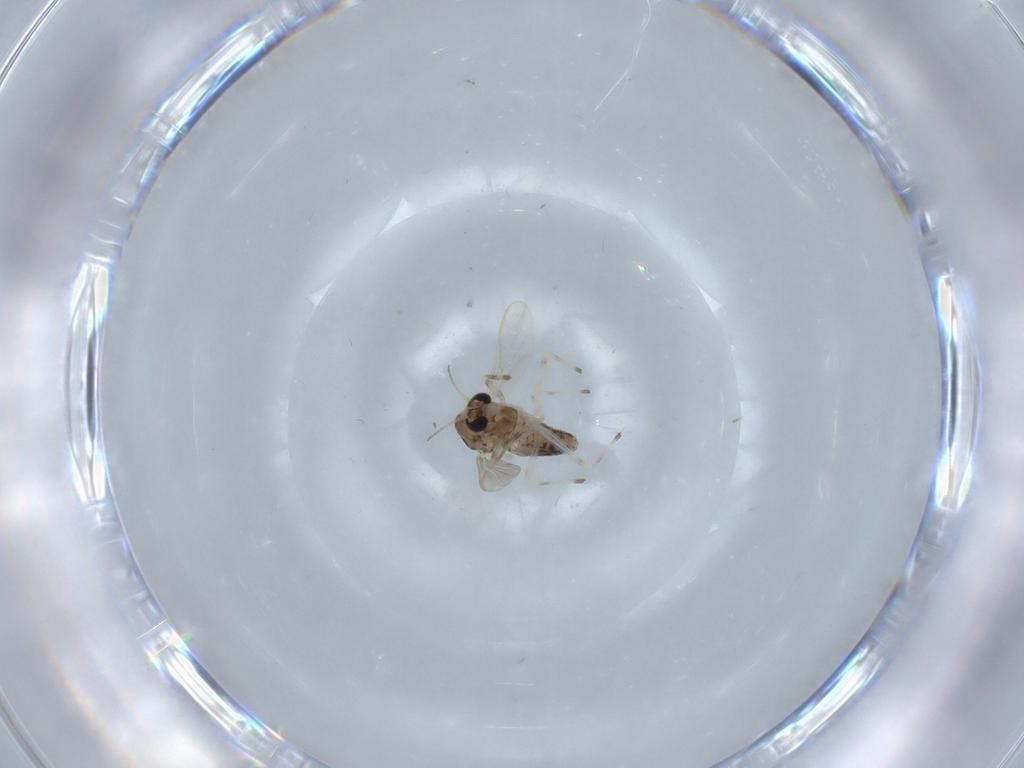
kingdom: Animalia
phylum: Arthropoda
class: Insecta
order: Diptera
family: Chironomidae
